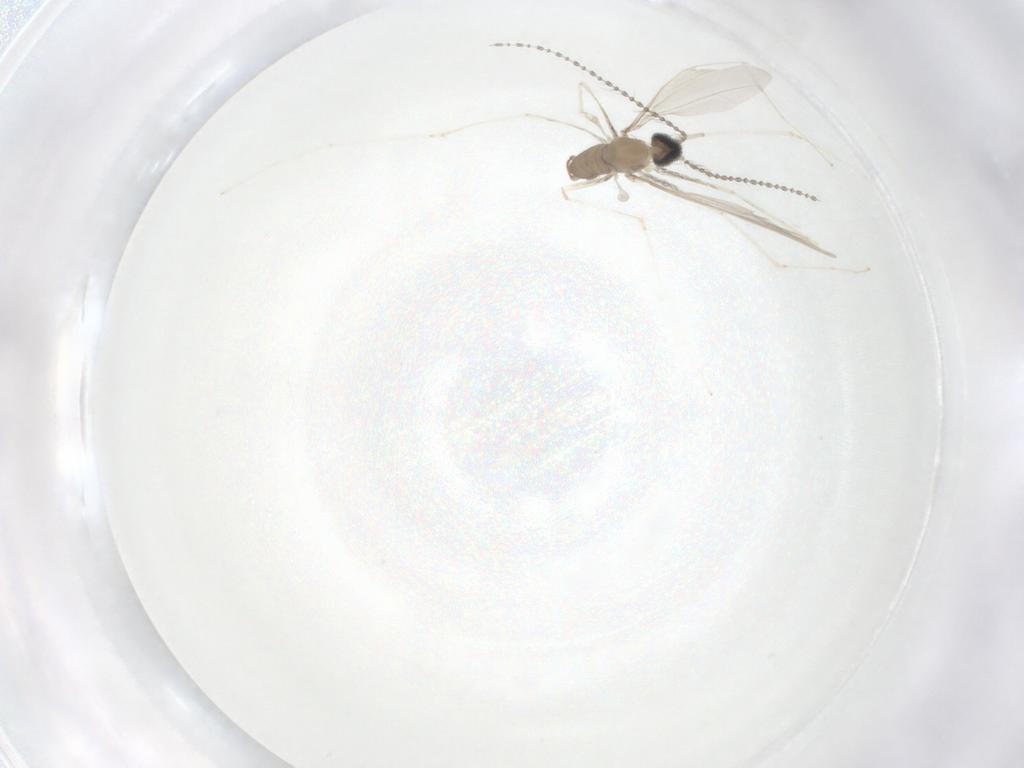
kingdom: Animalia
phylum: Arthropoda
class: Insecta
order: Diptera
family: Cecidomyiidae
